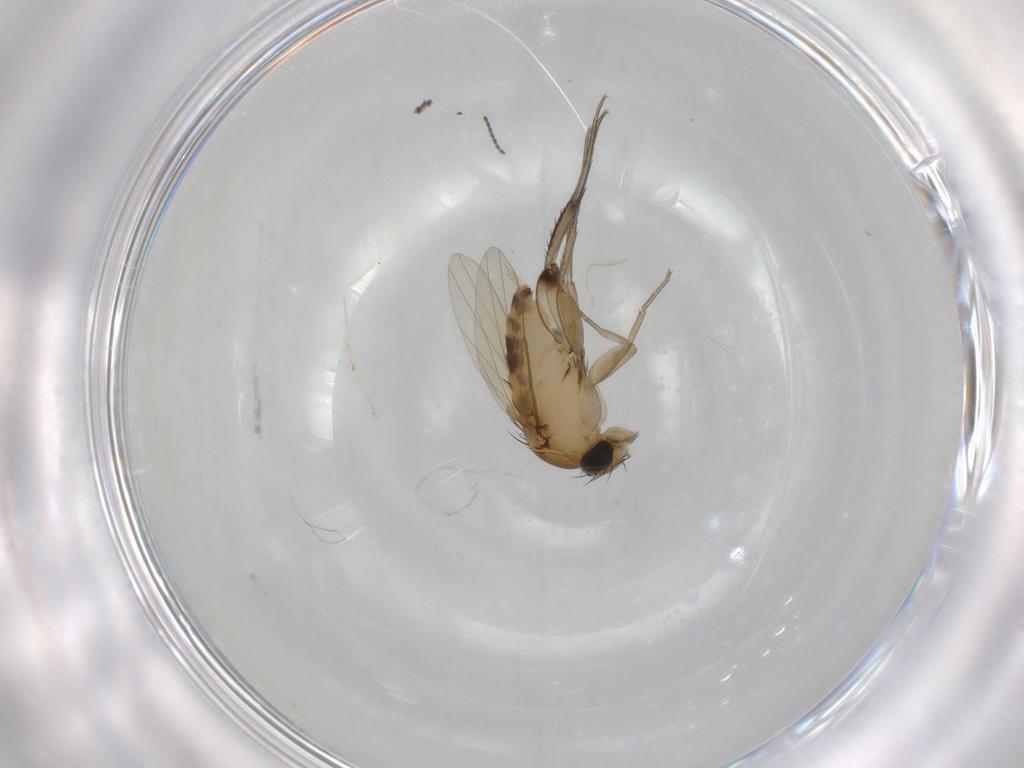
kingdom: Animalia
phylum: Arthropoda
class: Insecta
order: Diptera
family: Phoridae
